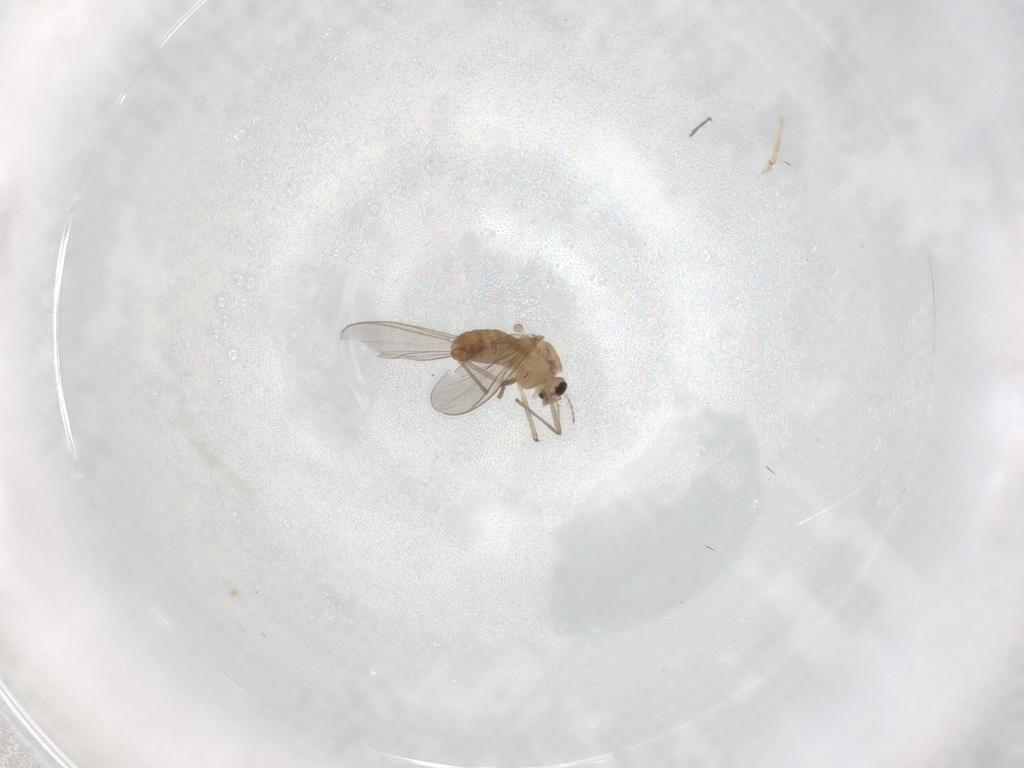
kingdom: Animalia
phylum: Arthropoda
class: Insecta
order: Diptera
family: Chironomidae
